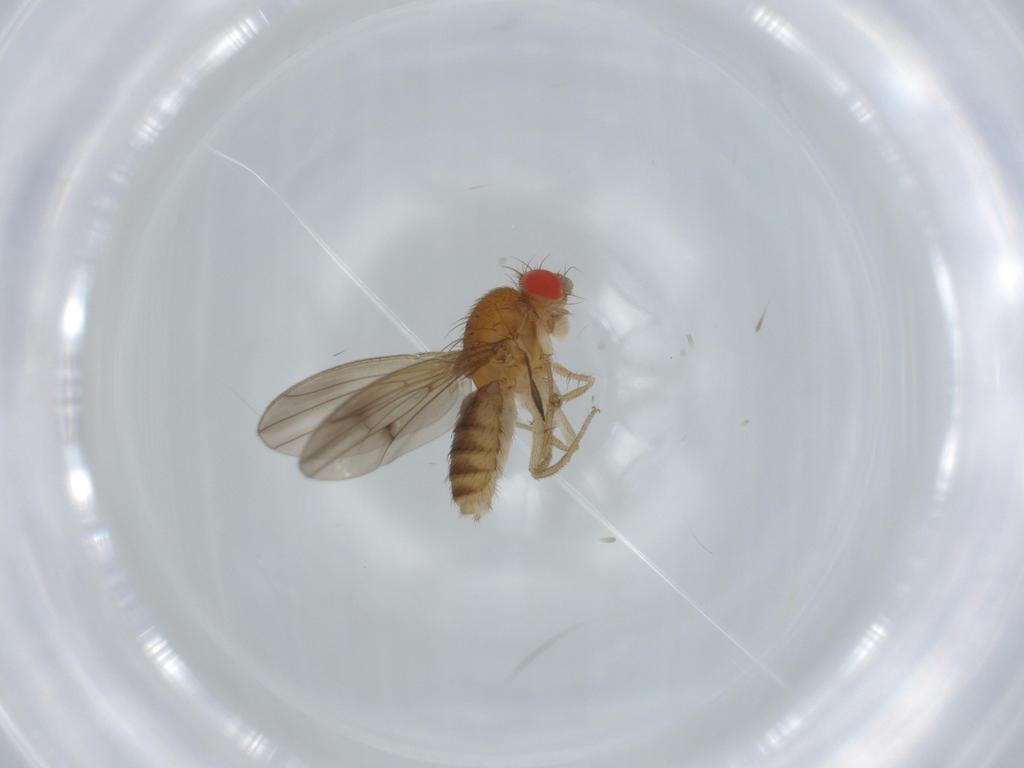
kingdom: Animalia
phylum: Arthropoda
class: Insecta
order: Diptera
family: Drosophilidae
